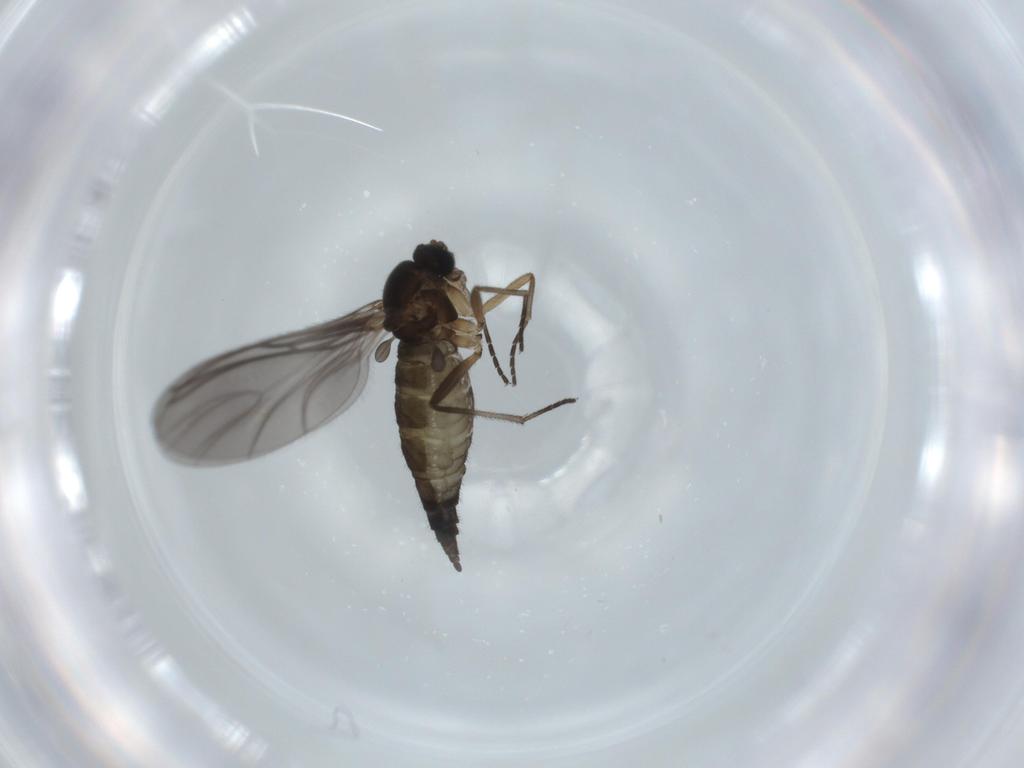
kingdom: Animalia
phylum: Arthropoda
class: Insecta
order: Diptera
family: Sciaridae
